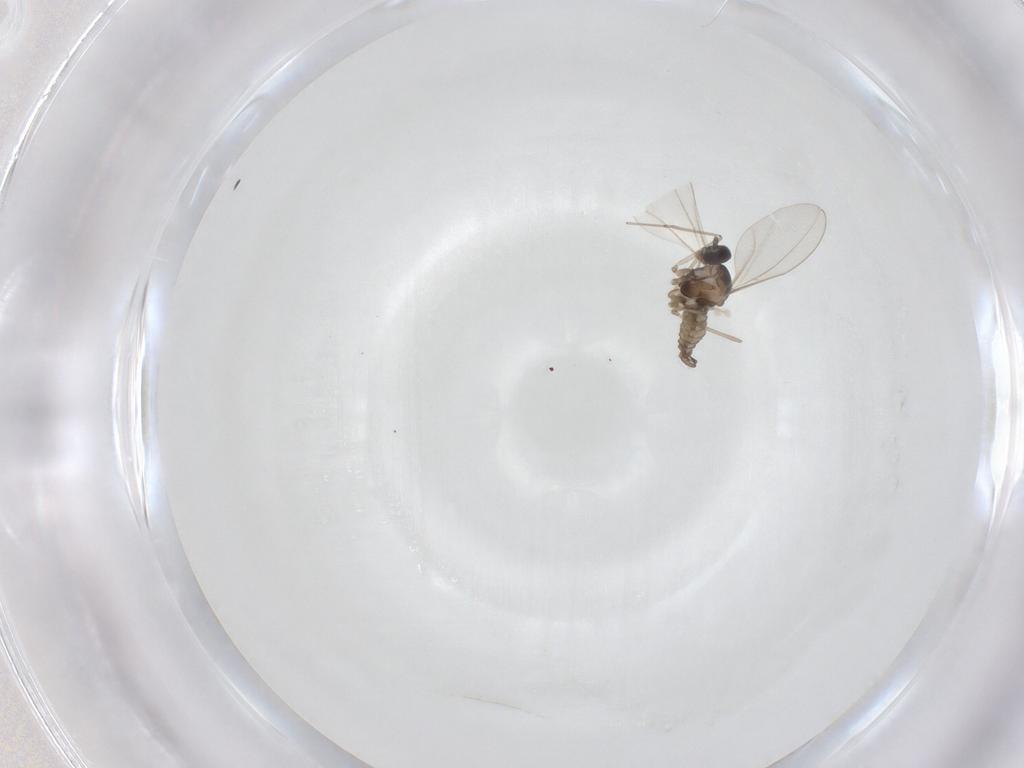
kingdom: Animalia
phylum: Arthropoda
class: Insecta
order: Diptera
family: Cecidomyiidae
